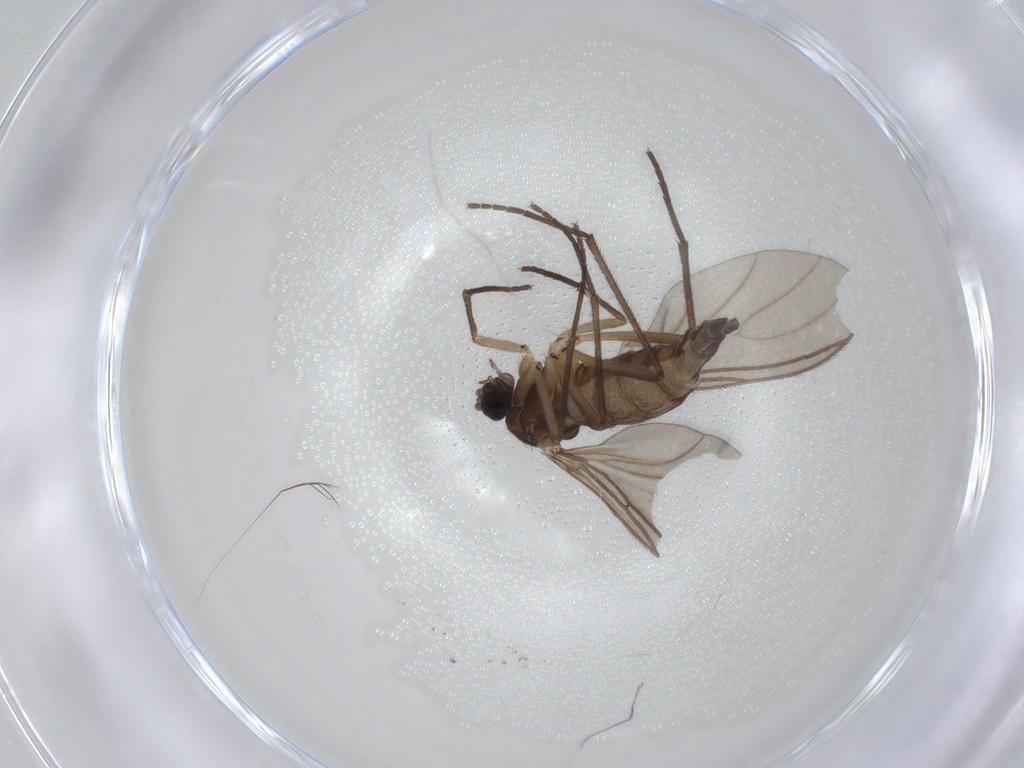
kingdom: Animalia
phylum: Arthropoda
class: Insecta
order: Diptera
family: Sciaridae
